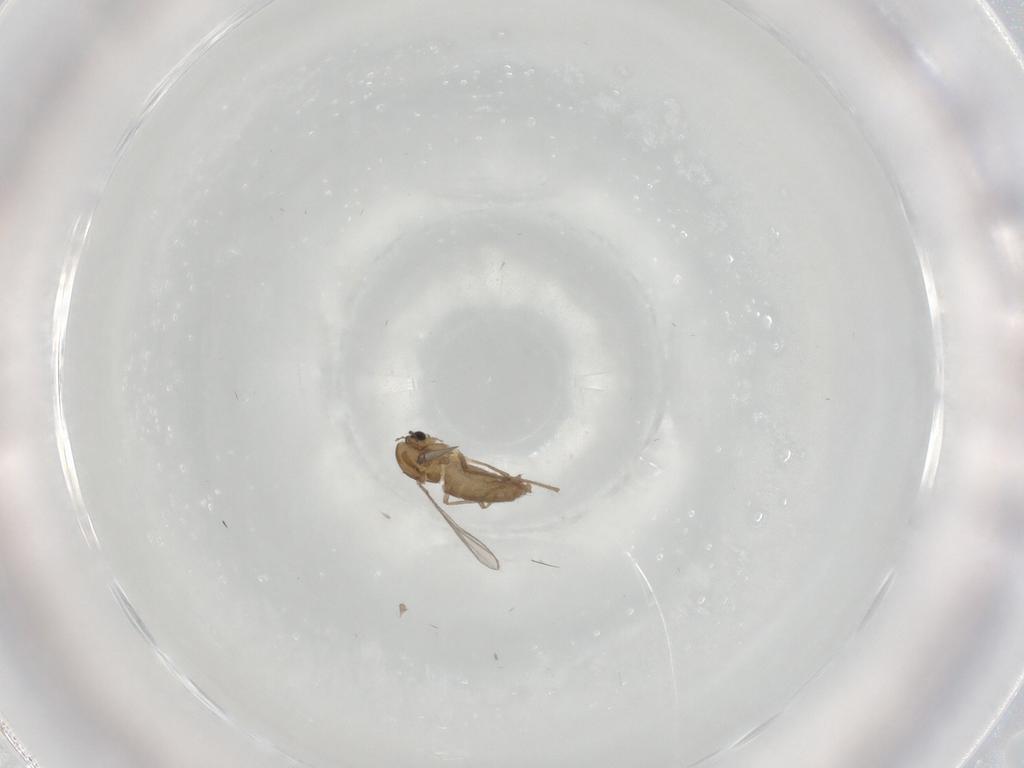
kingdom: Animalia
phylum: Arthropoda
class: Insecta
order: Diptera
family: Chironomidae
